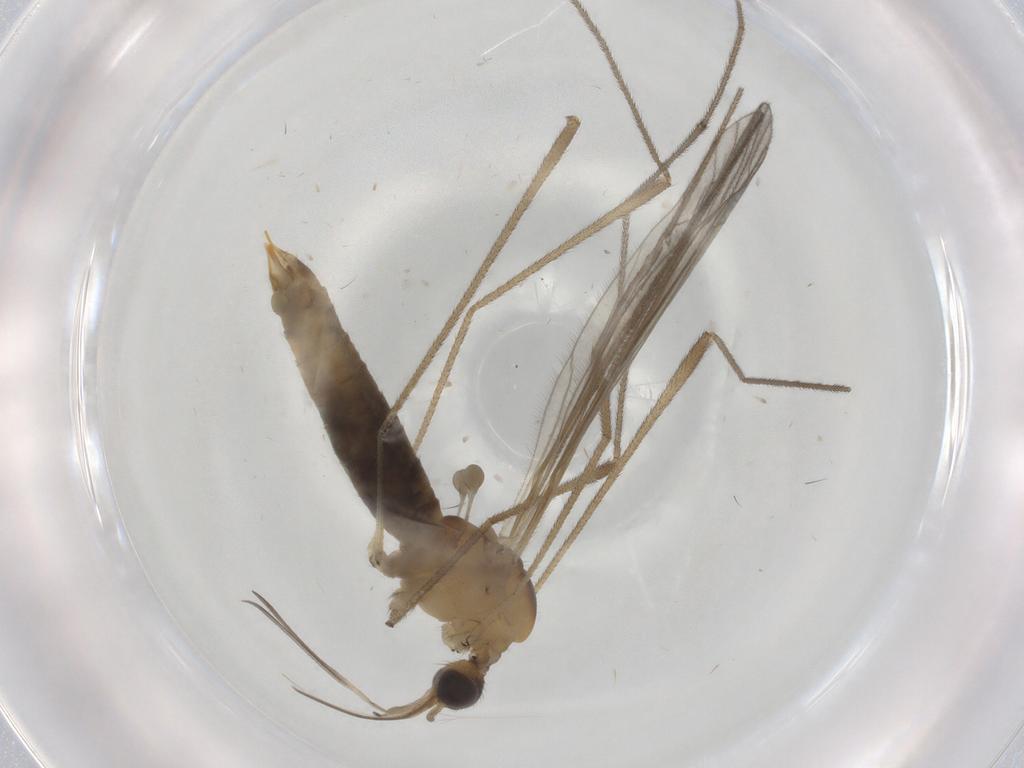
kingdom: Animalia
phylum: Arthropoda
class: Insecta
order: Diptera
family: Limoniidae
